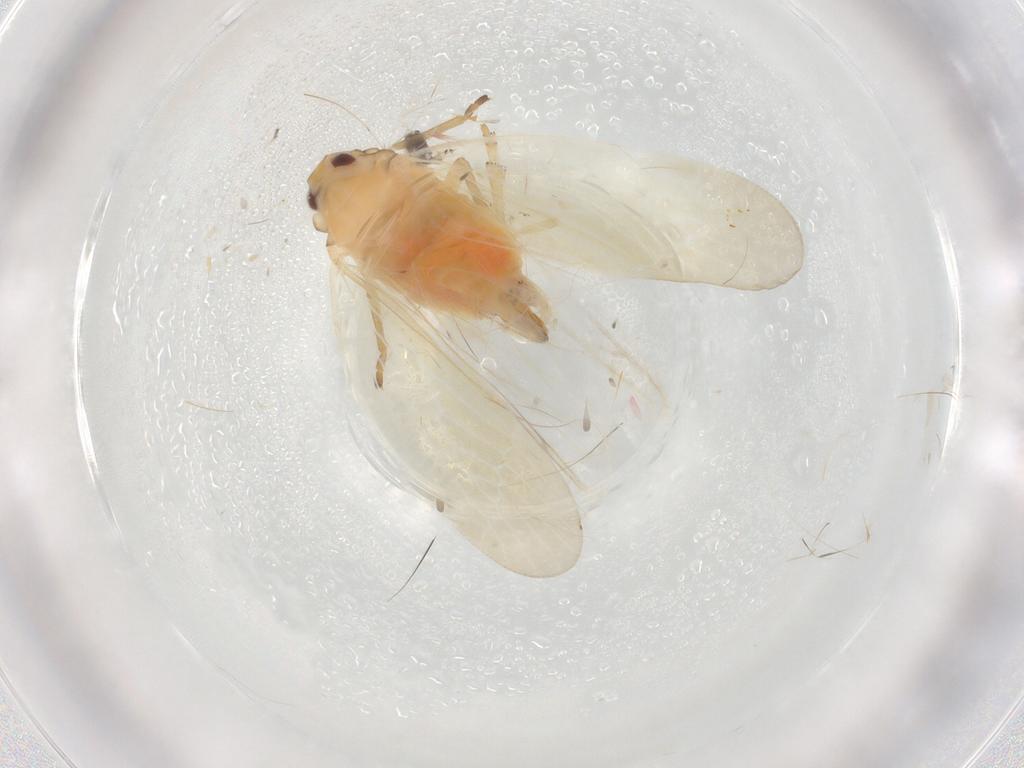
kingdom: Animalia
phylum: Arthropoda
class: Insecta
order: Hemiptera
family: Derbidae
